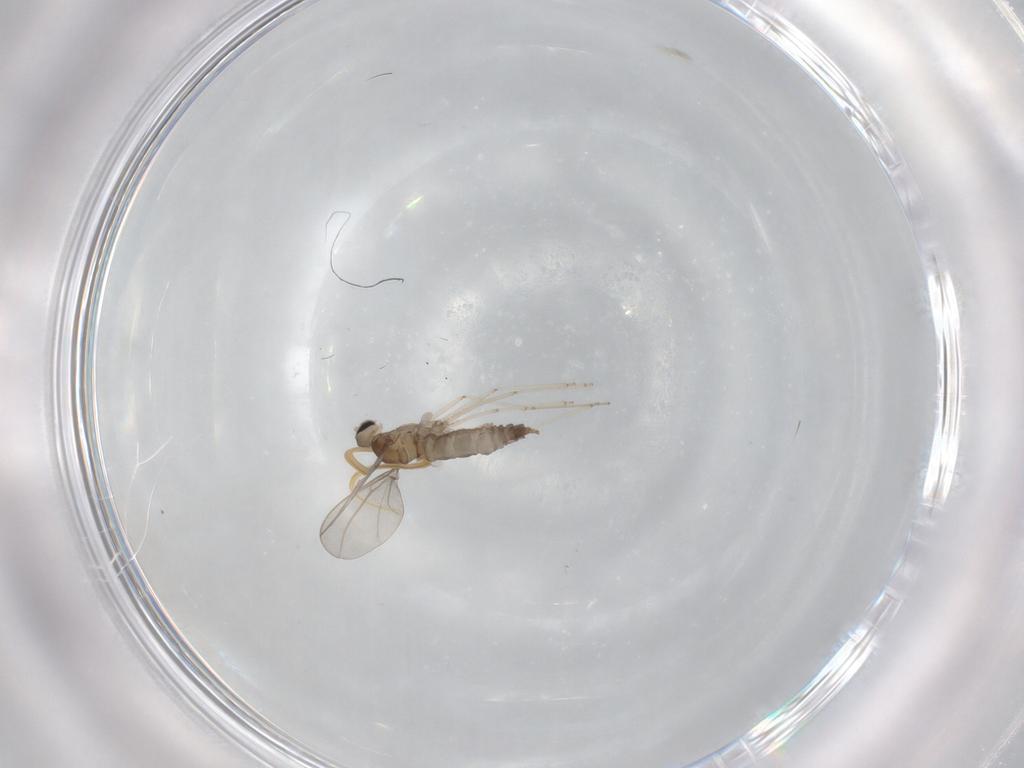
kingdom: Animalia
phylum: Arthropoda
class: Insecta
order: Diptera
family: Cecidomyiidae
